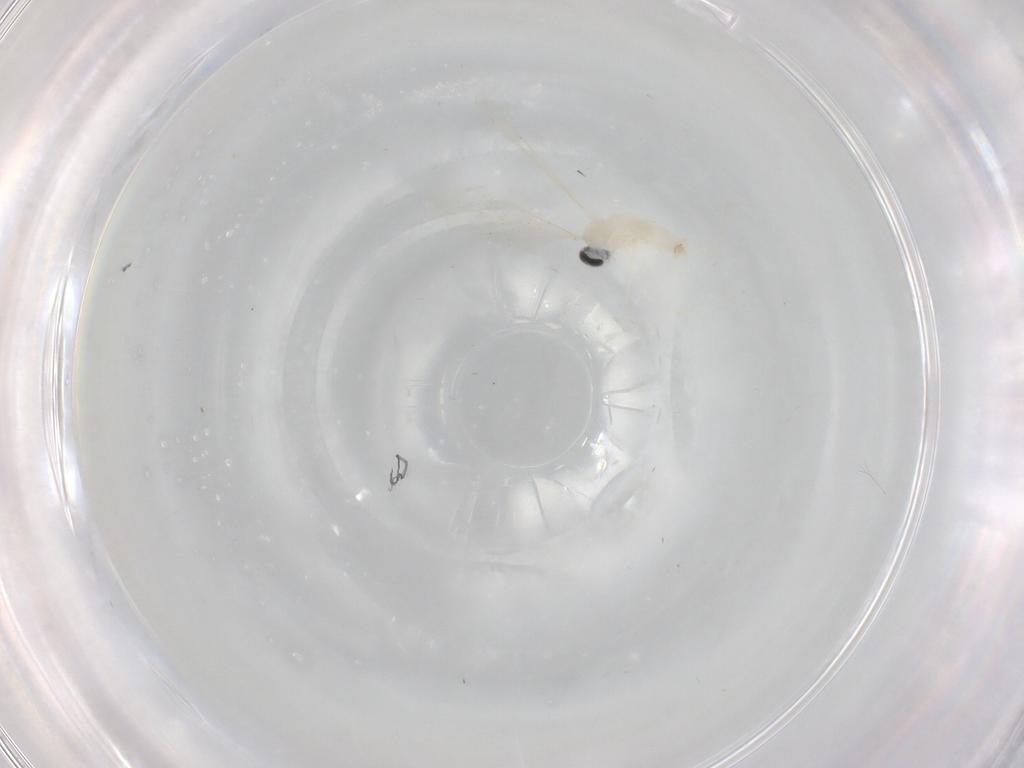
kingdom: Animalia
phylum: Arthropoda
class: Insecta
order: Diptera
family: Cecidomyiidae
